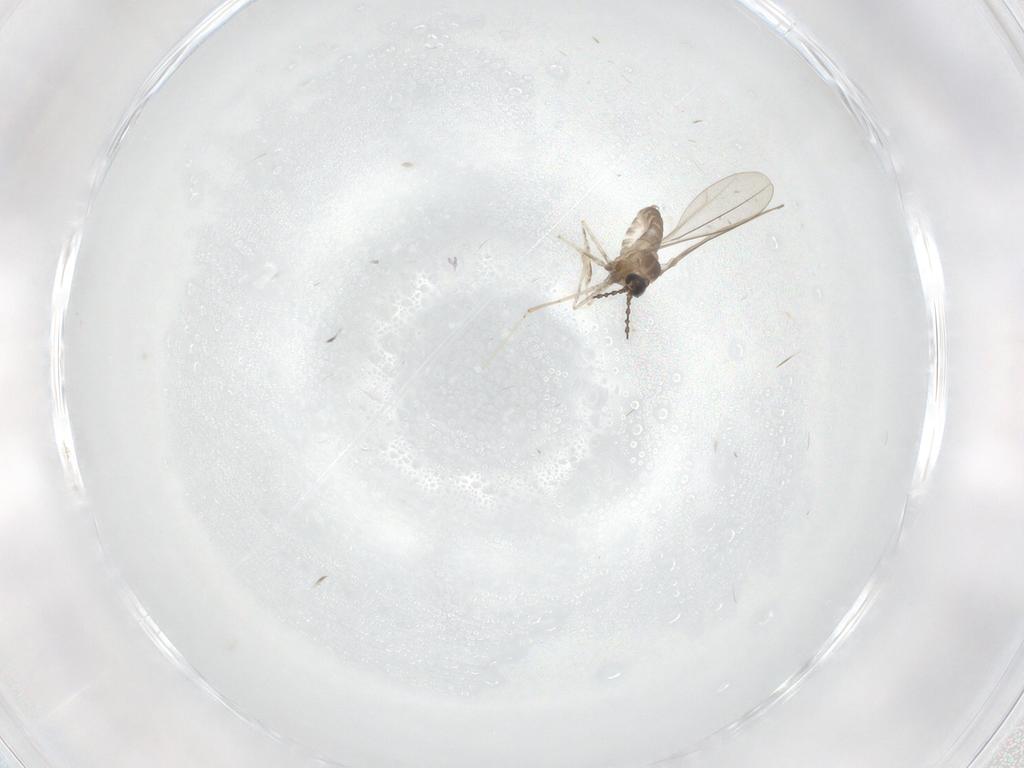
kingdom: Animalia
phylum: Arthropoda
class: Insecta
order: Diptera
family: Cecidomyiidae
